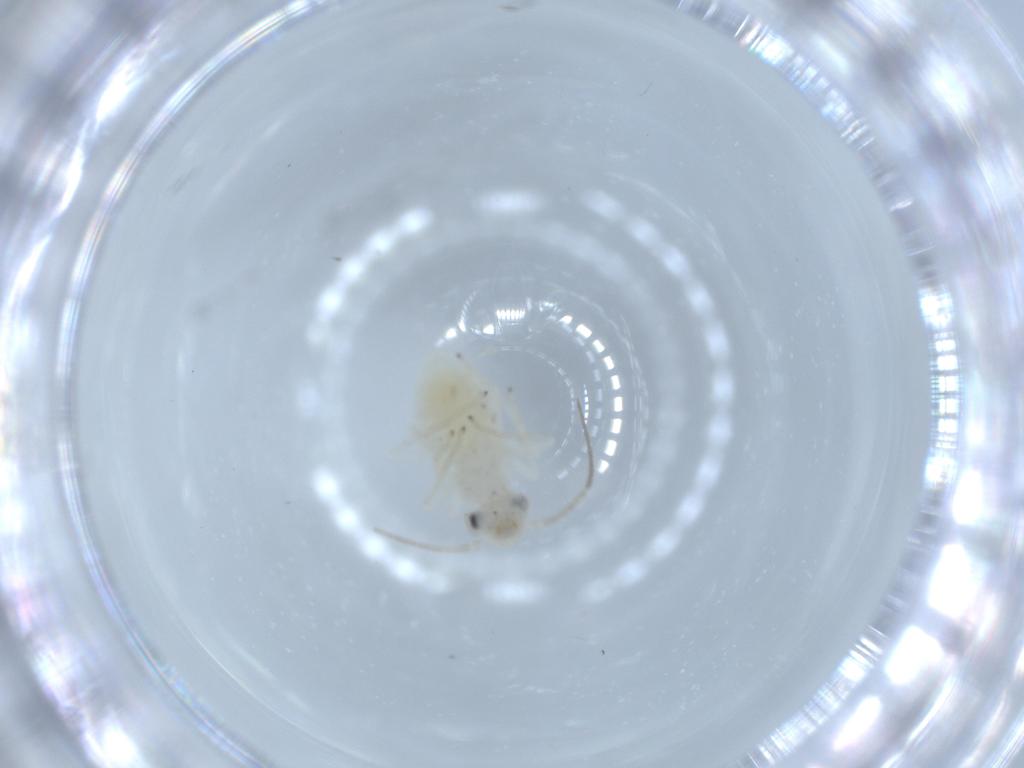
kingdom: Animalia
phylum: Arthropoda
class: Insecta
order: Psocodea
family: Caeciliusidae
